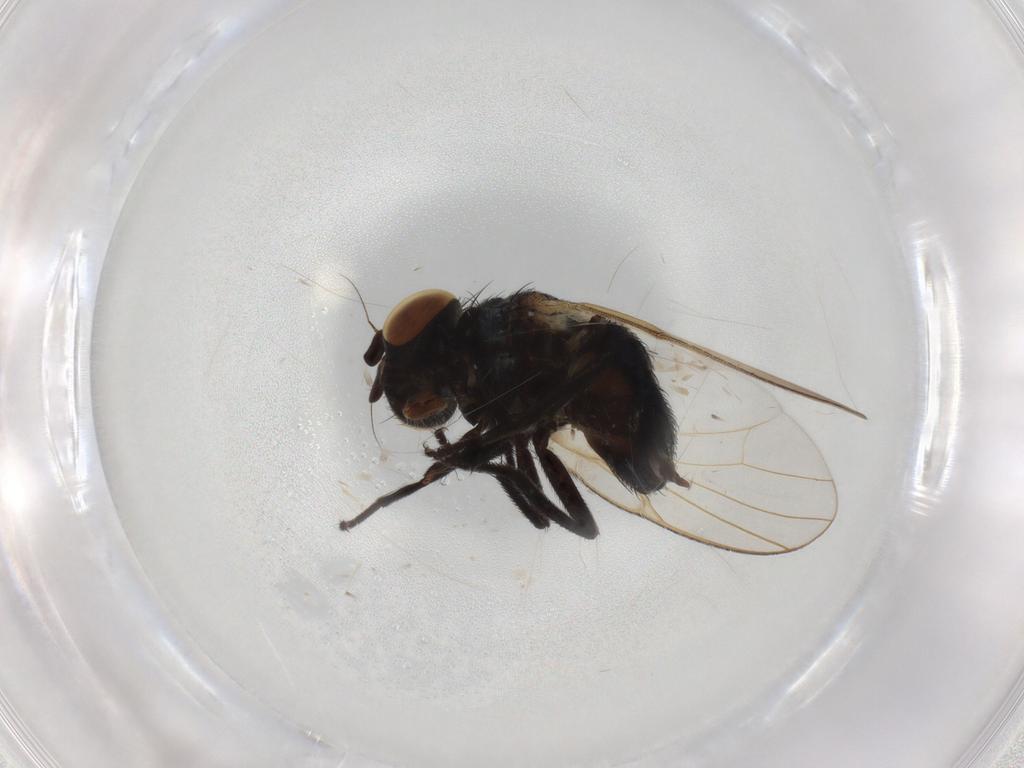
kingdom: Animalia
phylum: Arthropoda
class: Insecta
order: Diptera
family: Lonchaeidae
